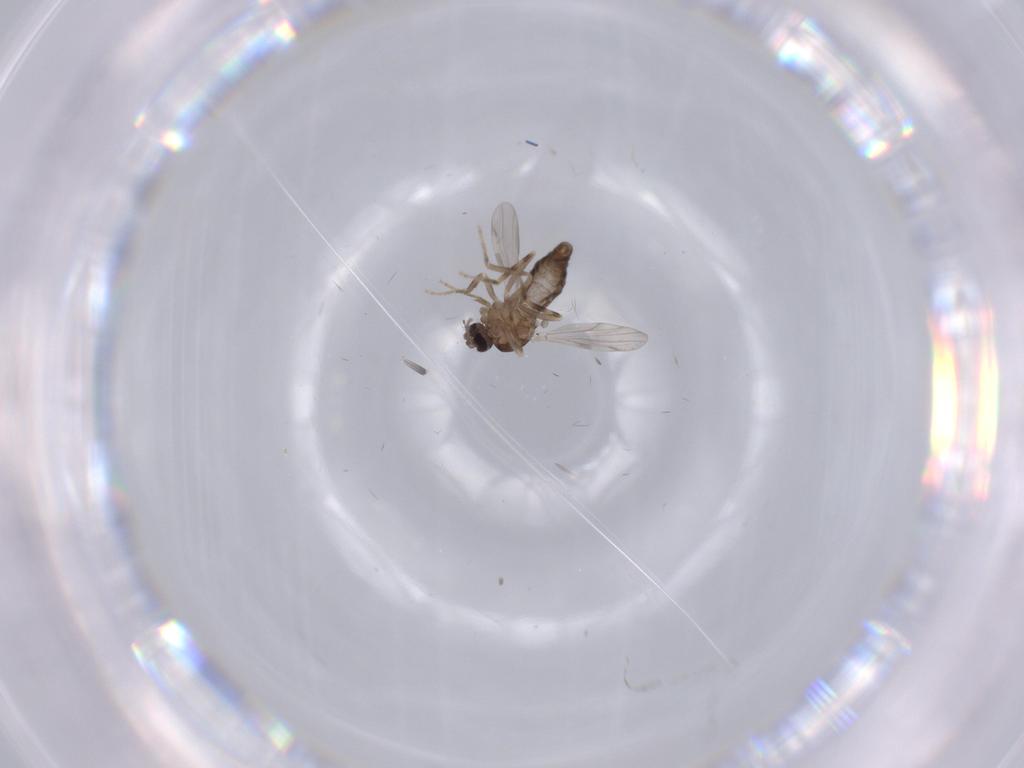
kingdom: Animalia
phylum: Arthropoda
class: Insecta
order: Diptera
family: Ceratopogonidae
